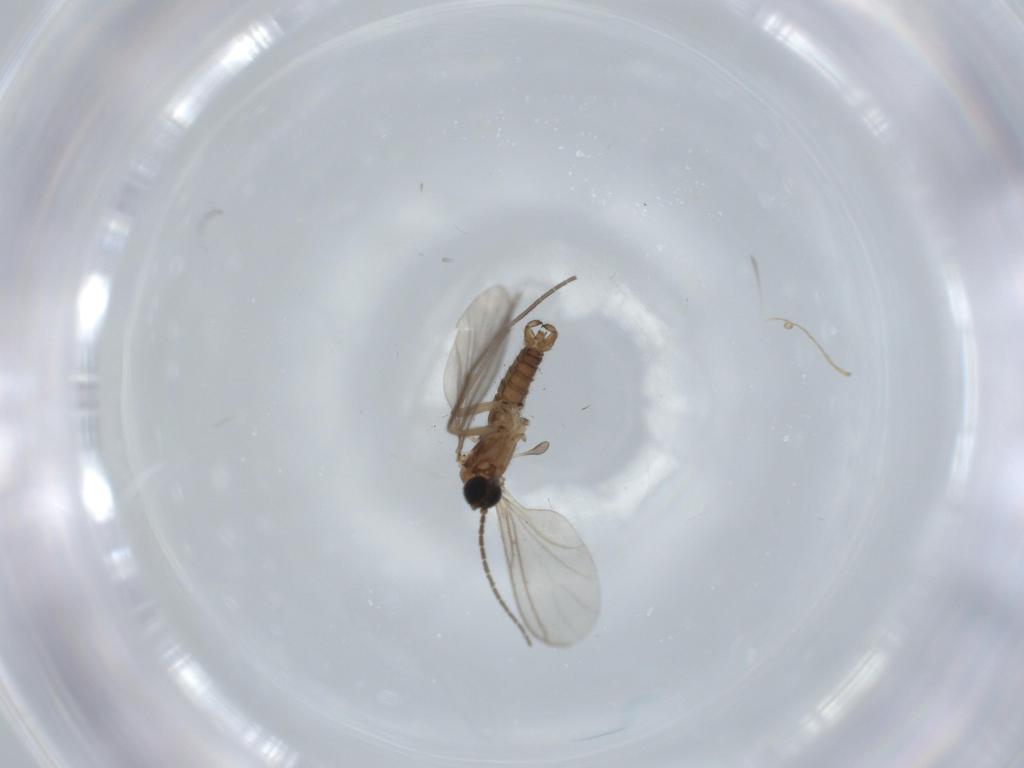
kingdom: Animalia
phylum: Arthropoda
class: Insecta
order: Diptera
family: Sciaridae
